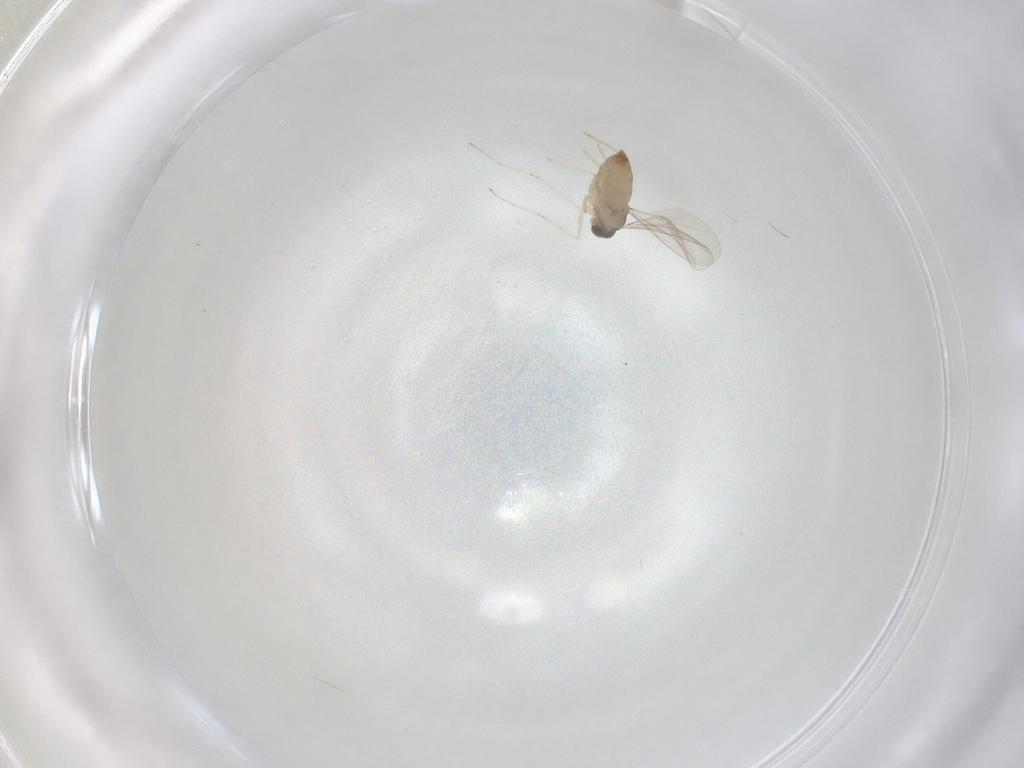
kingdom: Animalia
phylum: Arthropoda
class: Insecta
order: Diptera
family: Cecidomyiidae
